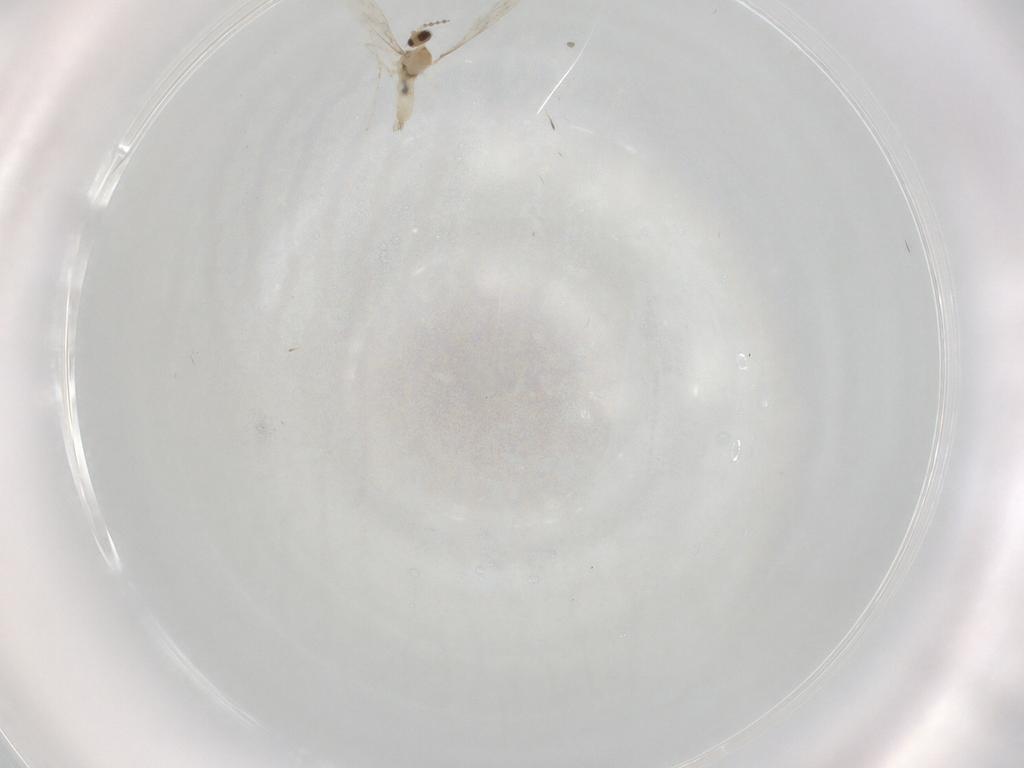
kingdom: Animalia
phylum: Arthropoda
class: Insecta
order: Diptera
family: Cecidomyiidae
